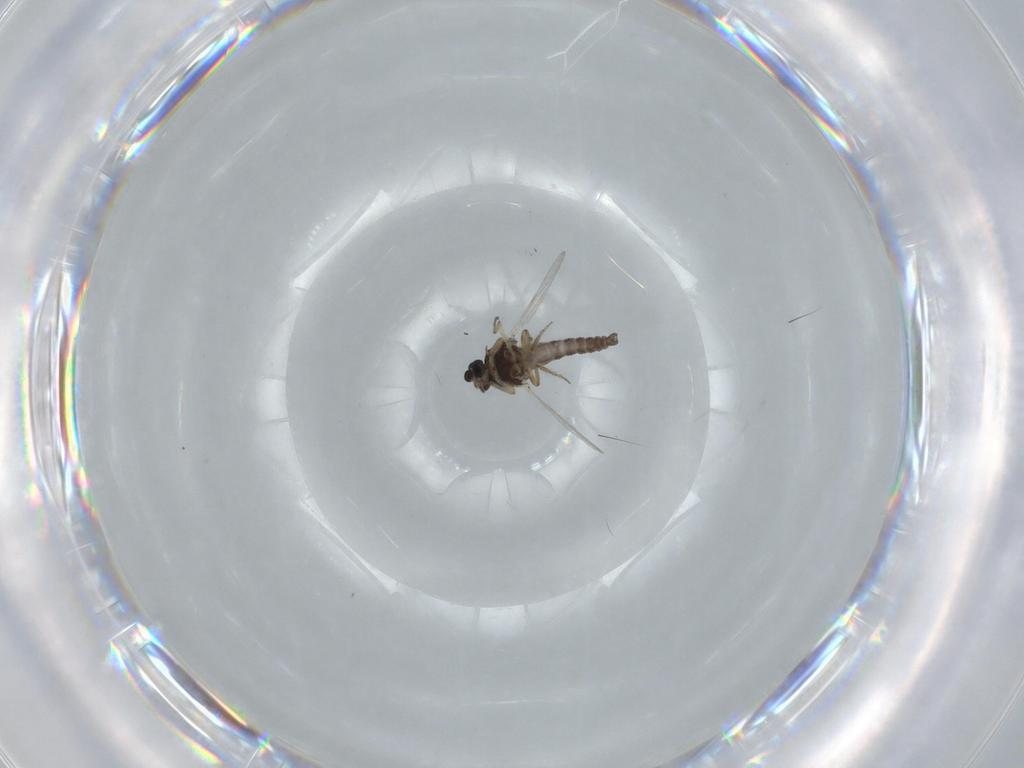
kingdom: Animalia
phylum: Arthropoda
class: Insecta
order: Diptera
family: Ceratopogonidae
